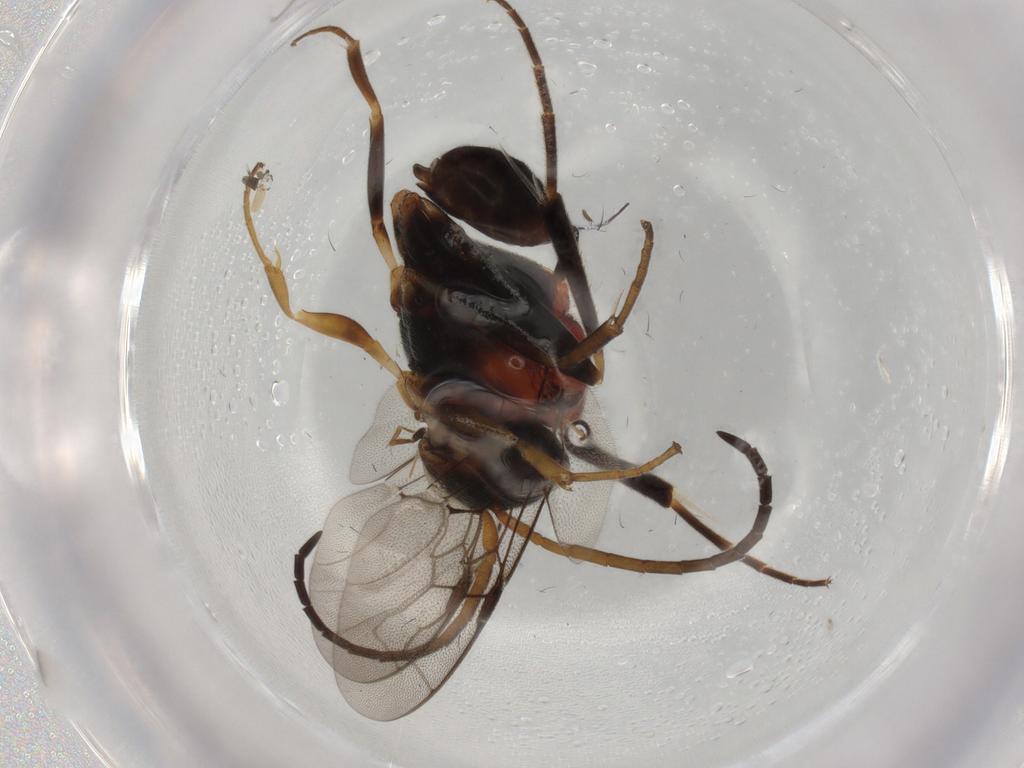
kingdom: Animalia
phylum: Arthropoda
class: Insecta
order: Hymenoptera
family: Evaniidae
